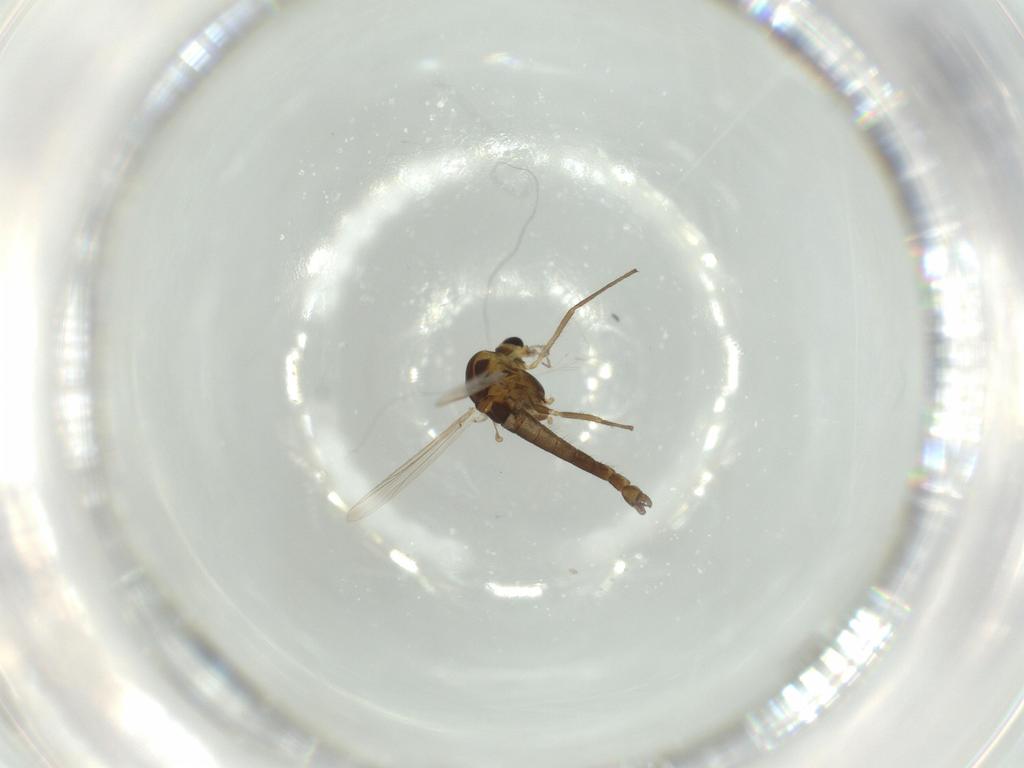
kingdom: Animalia
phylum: Arthropoda
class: Insecta
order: Diptera
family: Chironomidae
